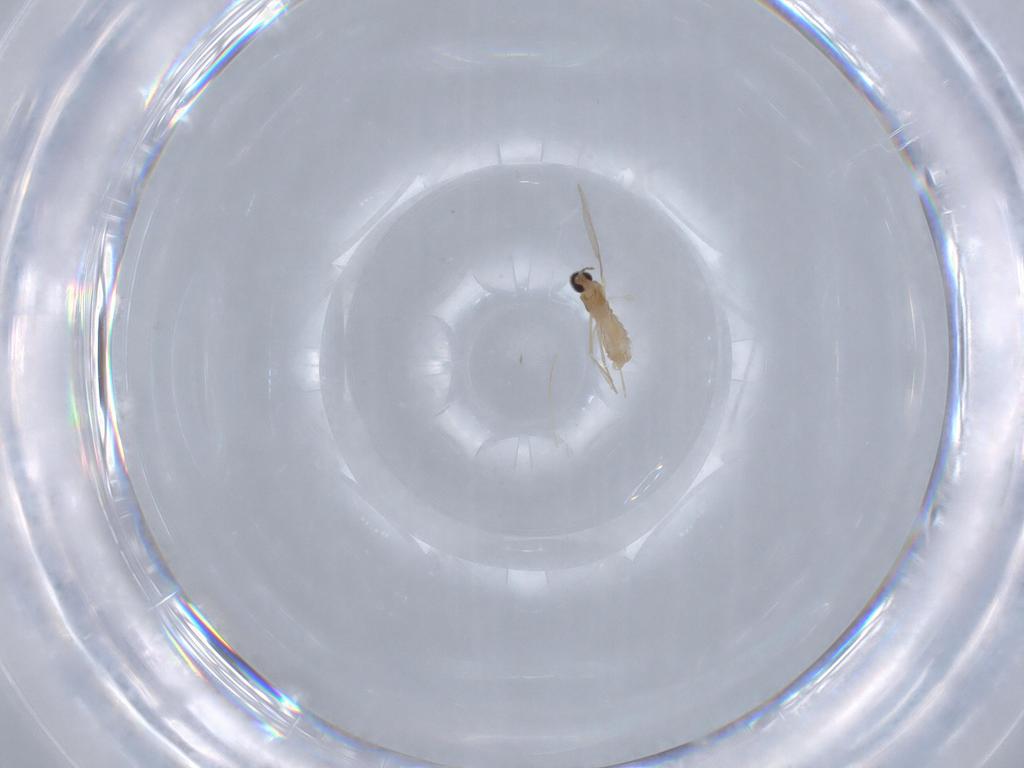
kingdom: Animalia
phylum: Arthropoda
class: Insecta
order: Diptera
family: Cecidomyiidae
